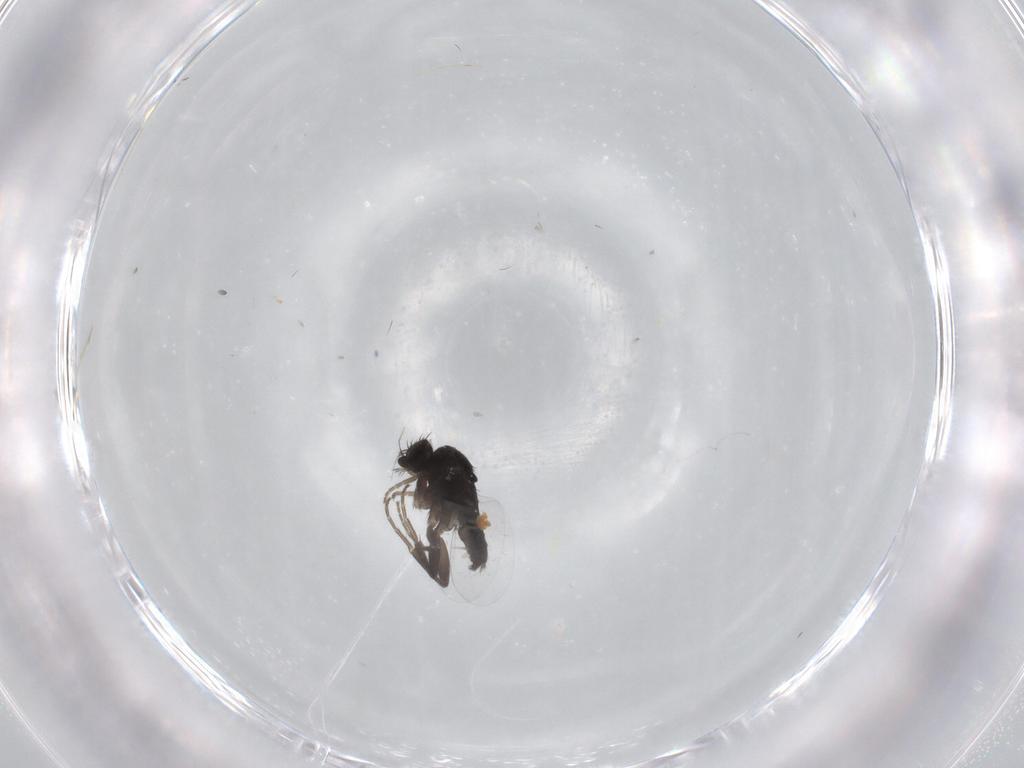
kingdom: Animalia
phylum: Arthropoda
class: Insecta
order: Diptera
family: Phoridae
